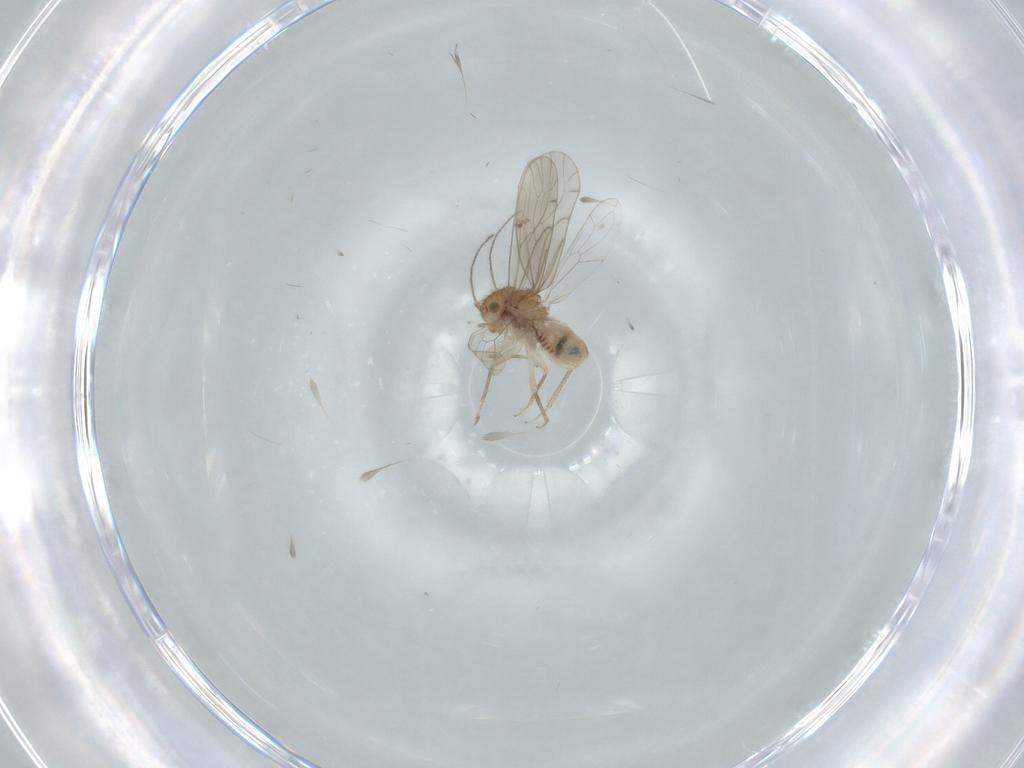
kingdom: Animalia
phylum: Arthropoda
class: Insecta
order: Psocodea
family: Ectopsocidae
